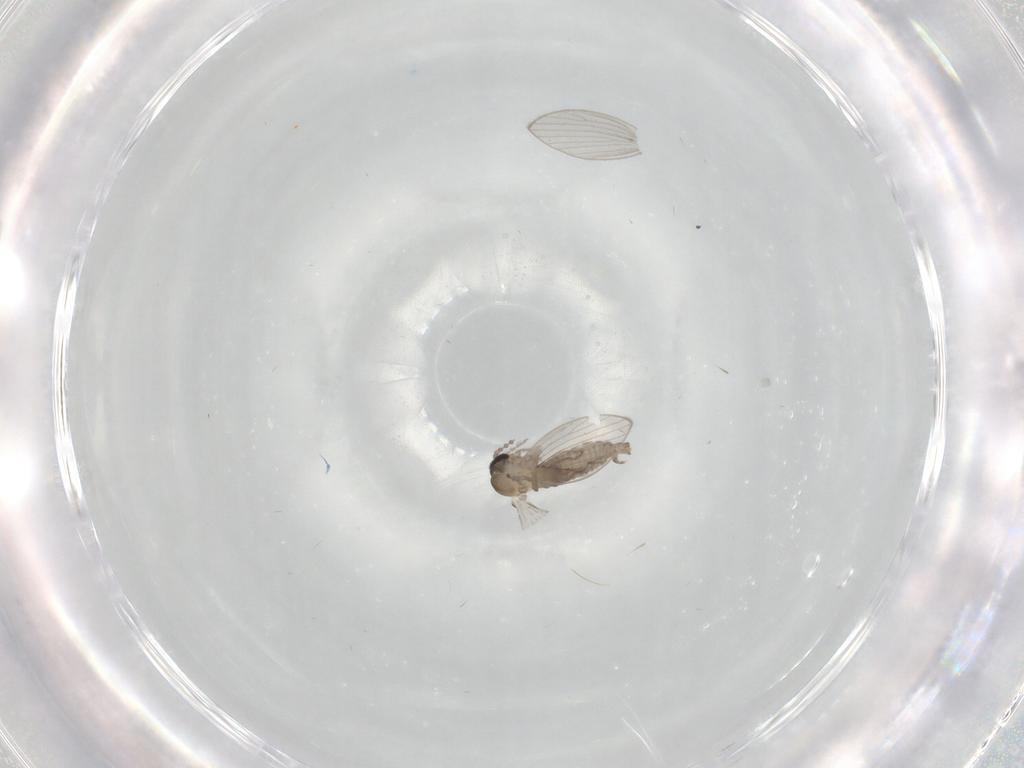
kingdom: Animalia
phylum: Arthropoda
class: Insecta
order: Diptera
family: Psychodidae
